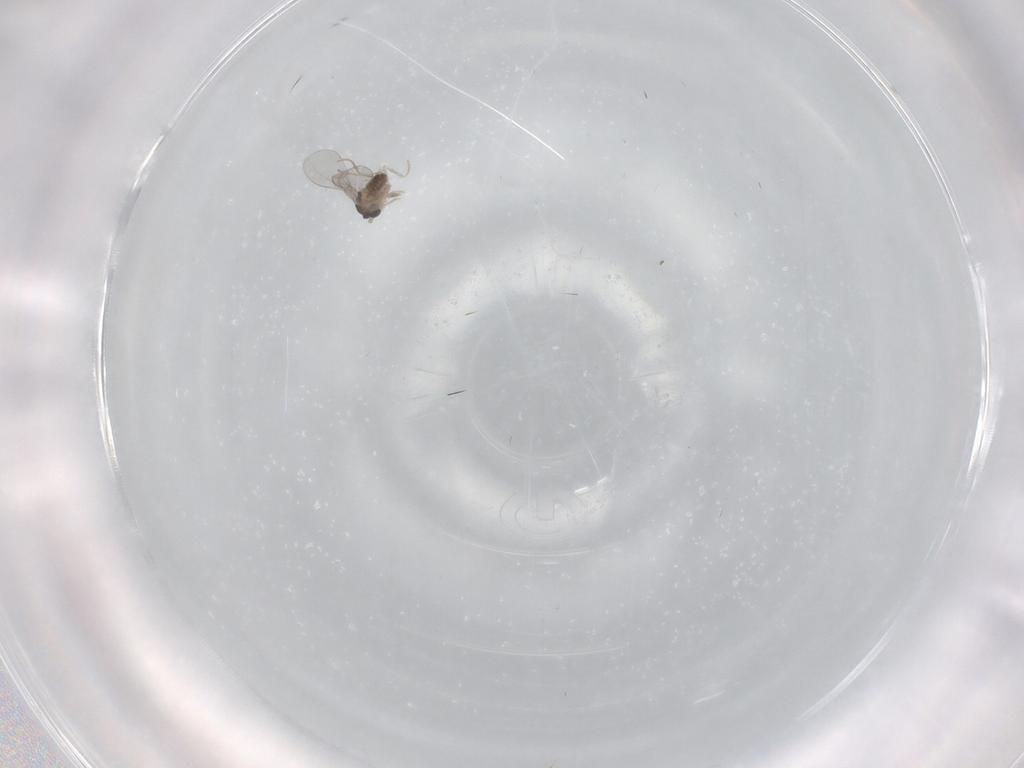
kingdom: Animalia
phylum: Arthropoda
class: Insecta
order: Diptera
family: Cecidomyiidae
